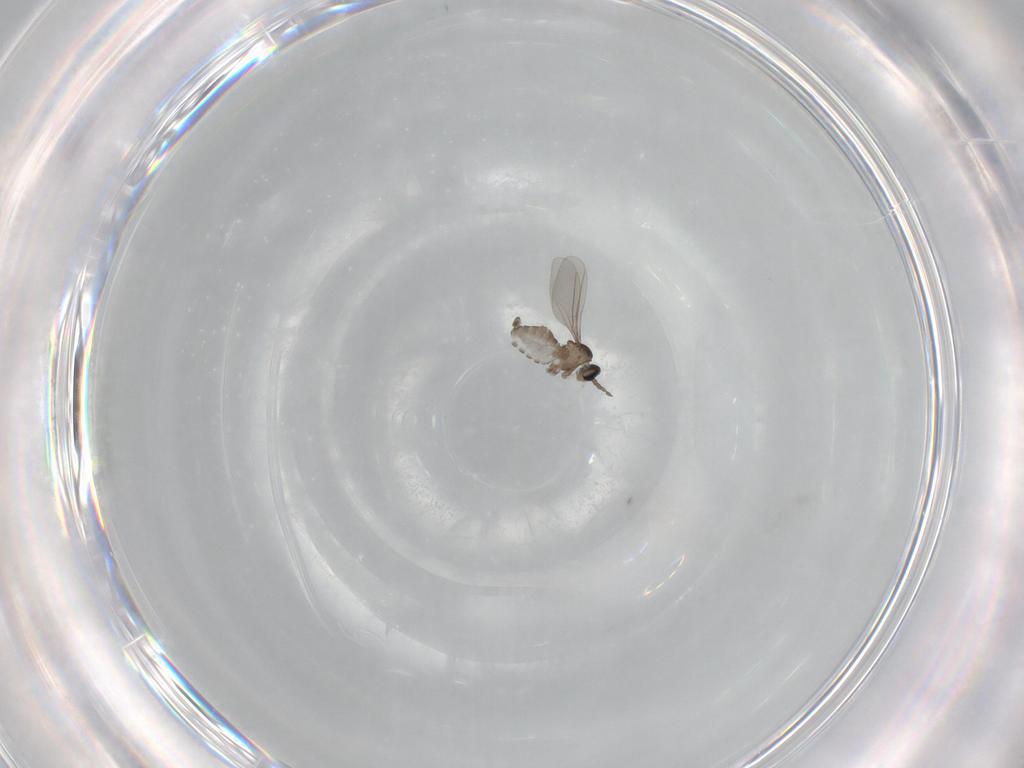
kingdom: Animalia
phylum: Arthropoda
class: Insecta
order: Diptera
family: Cecidomyiidae
